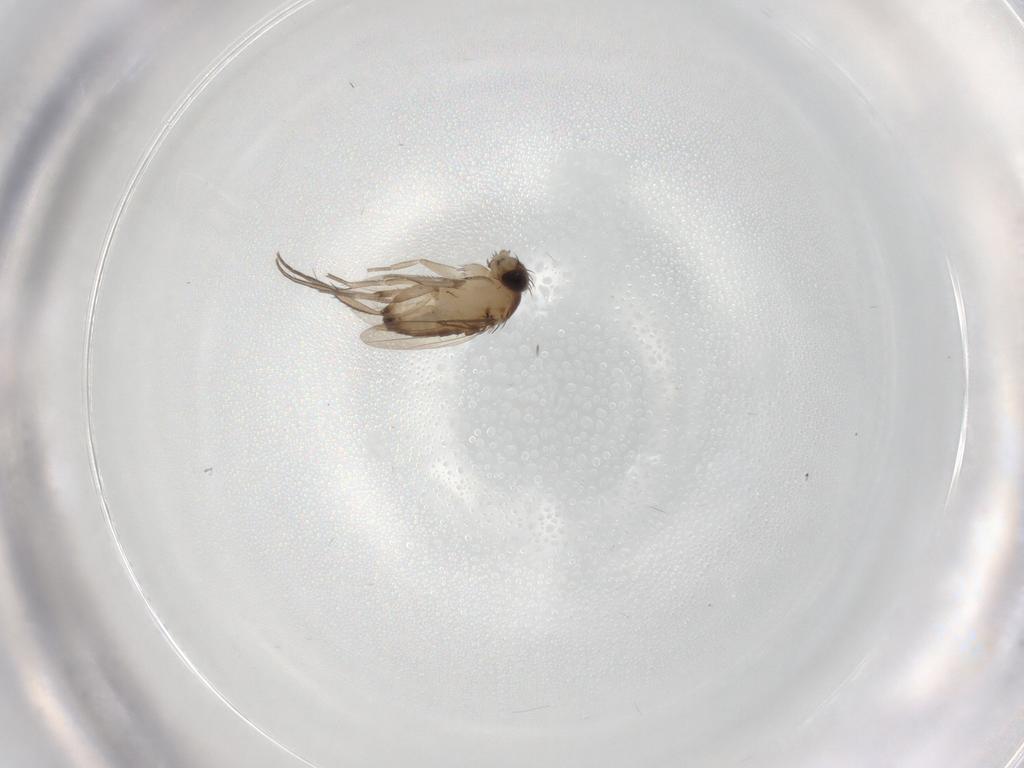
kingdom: Animalia
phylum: Arthropoda
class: Insecta
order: Diptera
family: Phoridae
